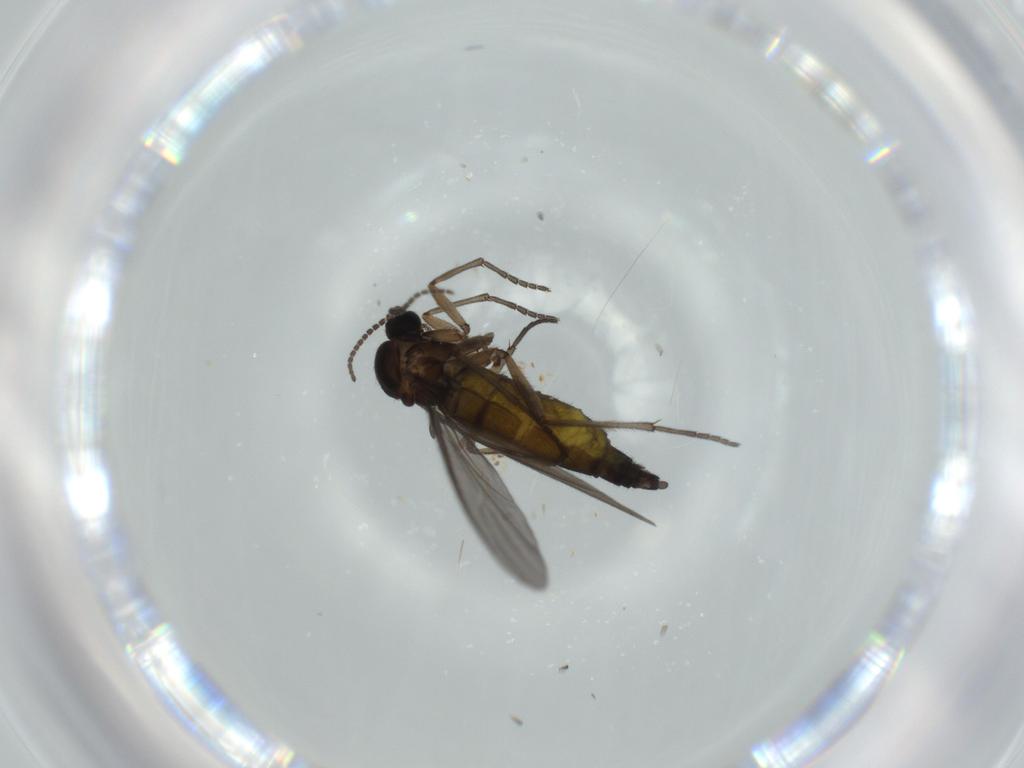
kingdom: Animalia
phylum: Arthropoda
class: Insecta
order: Diptera
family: Sciaridae
